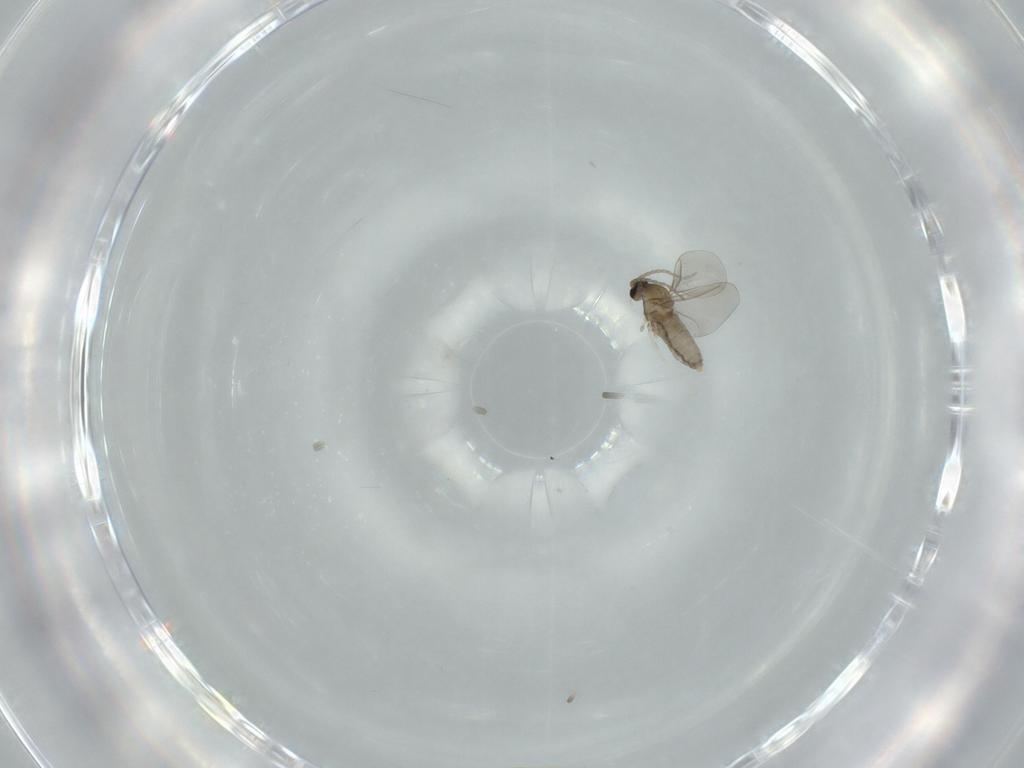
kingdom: Animalia
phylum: Arthropoda
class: Insecta
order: Diptera
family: Cecidomyiidae
